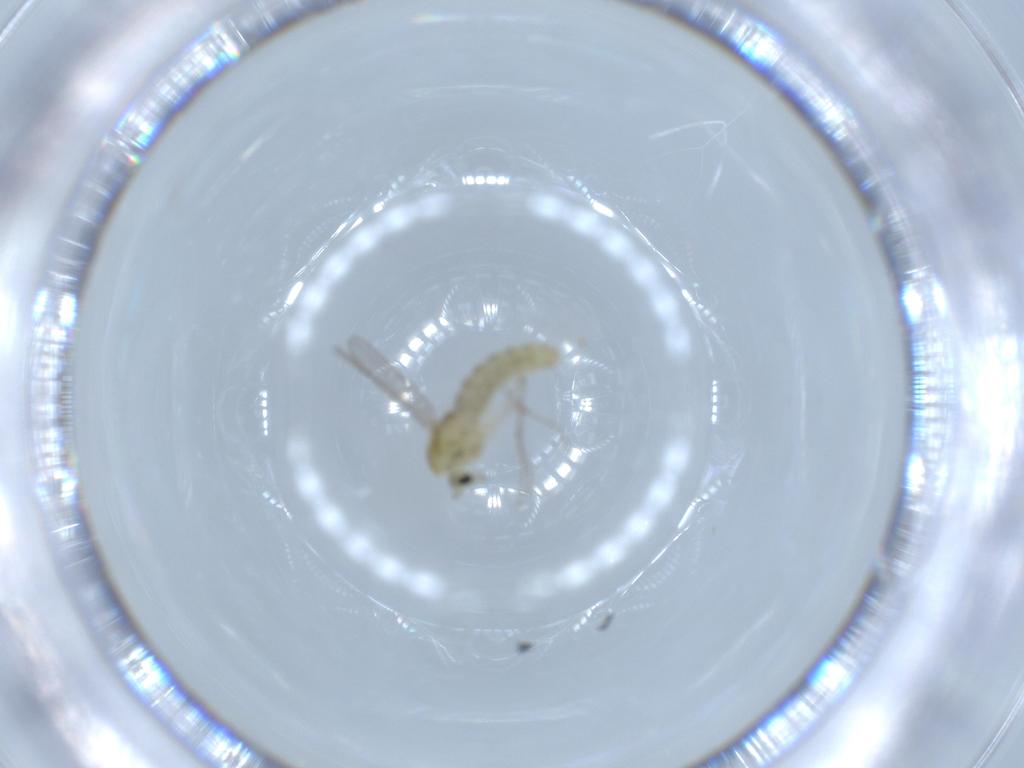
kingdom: Animalia
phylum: Arthropoda
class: Insecta
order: Diptera
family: Chironomidae
